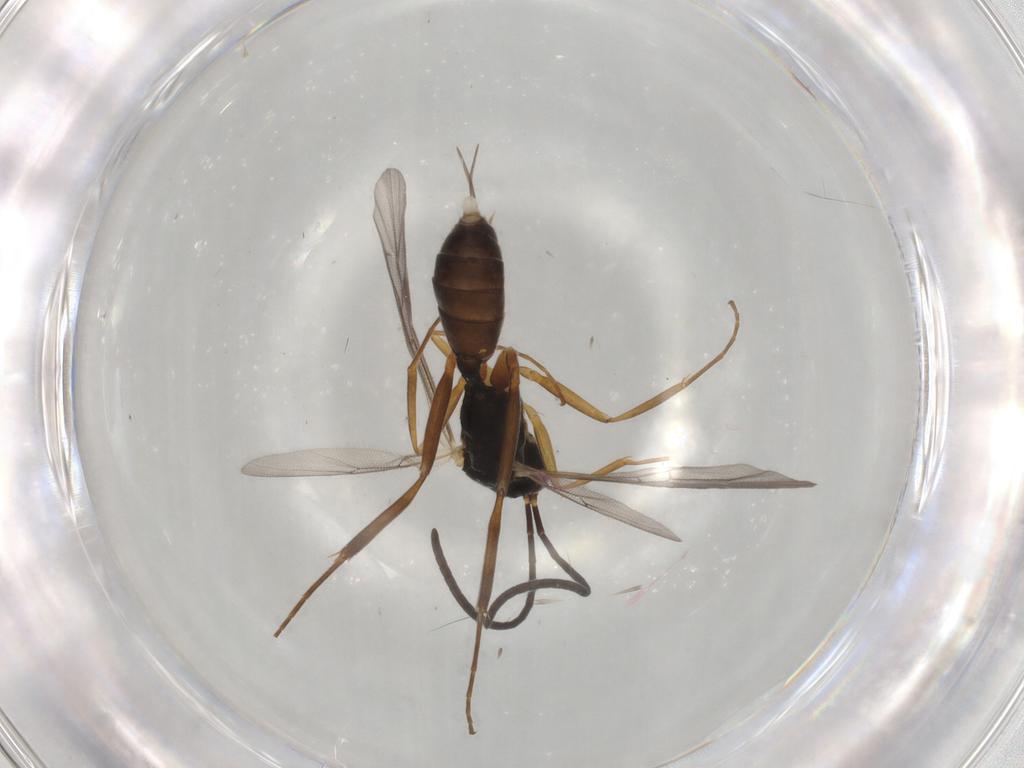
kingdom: Animalia
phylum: Arthropoda
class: Insecta
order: Hymenoptera
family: Ichneumonidae
